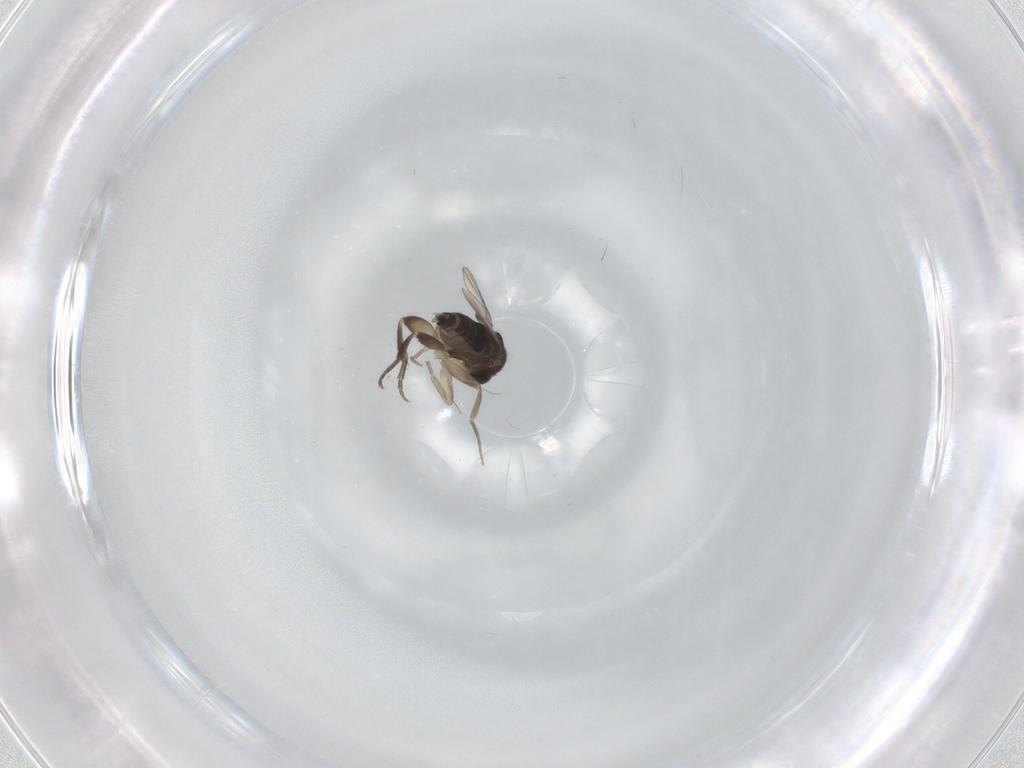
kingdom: Animalia
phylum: Arthropoda
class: Insecta
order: Diptera
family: Phoridae
